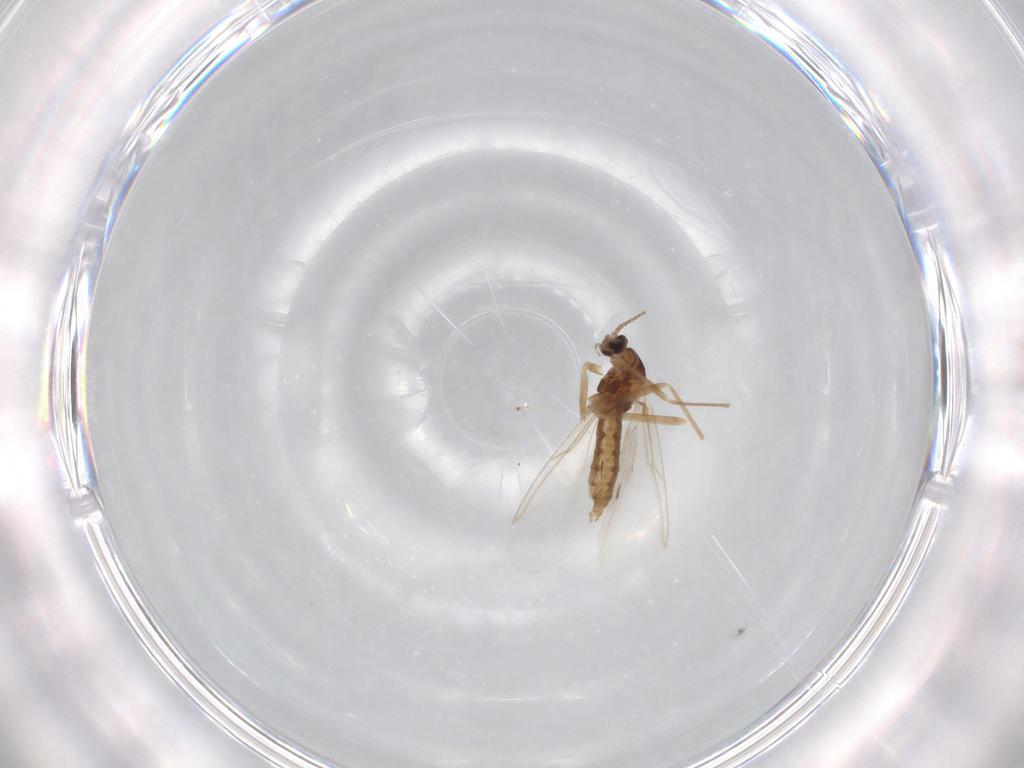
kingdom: Animalia
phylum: Arthropoda
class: Insecta
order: Diptera
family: Cecidomyiidae
